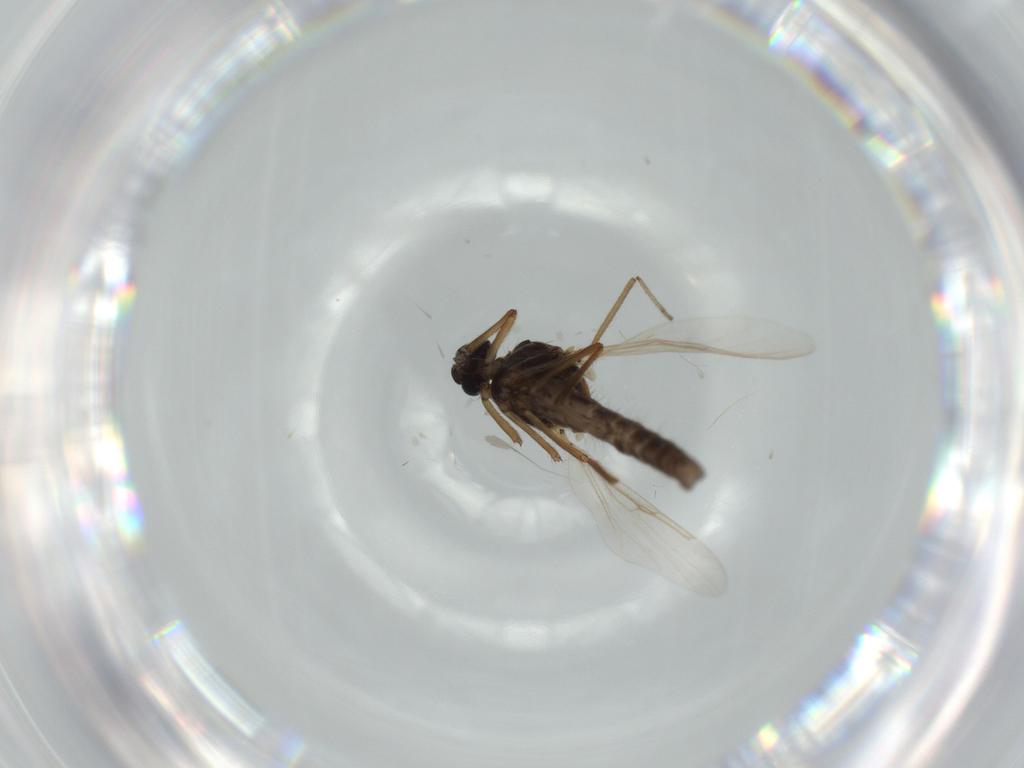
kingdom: Animalia
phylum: Arthropoda
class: Insecta
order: Diptera
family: Ceratopogonidae
